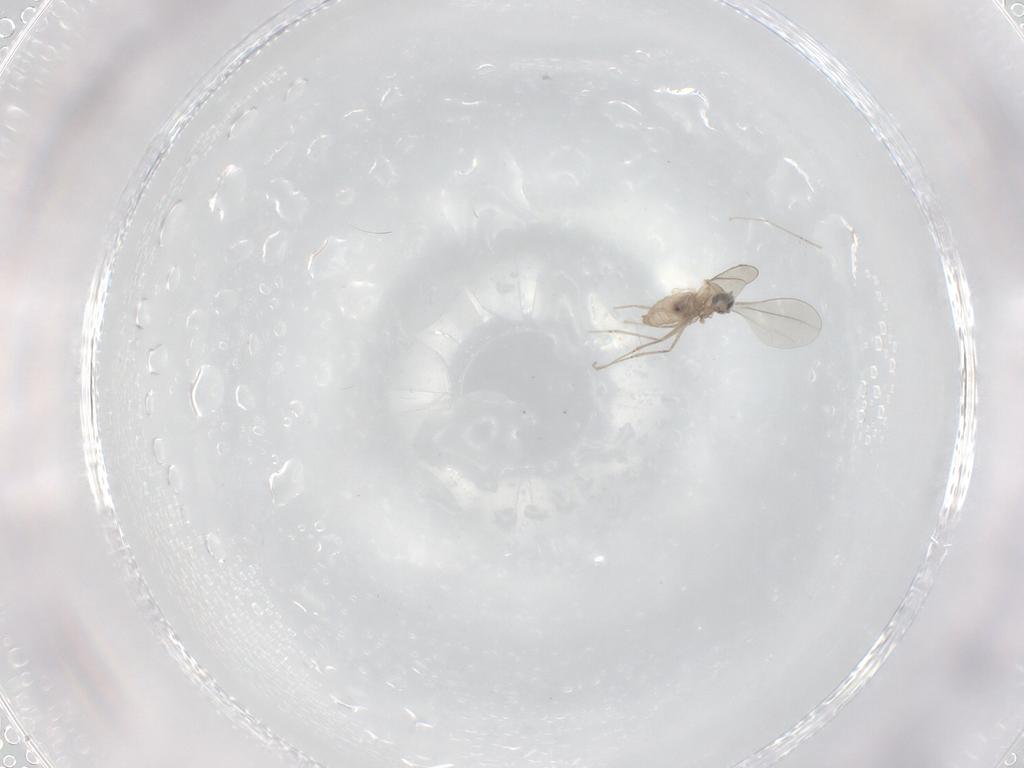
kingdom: Animalia
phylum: Arthropoda
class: Insecta
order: Diptera
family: Cecidomyiidae
